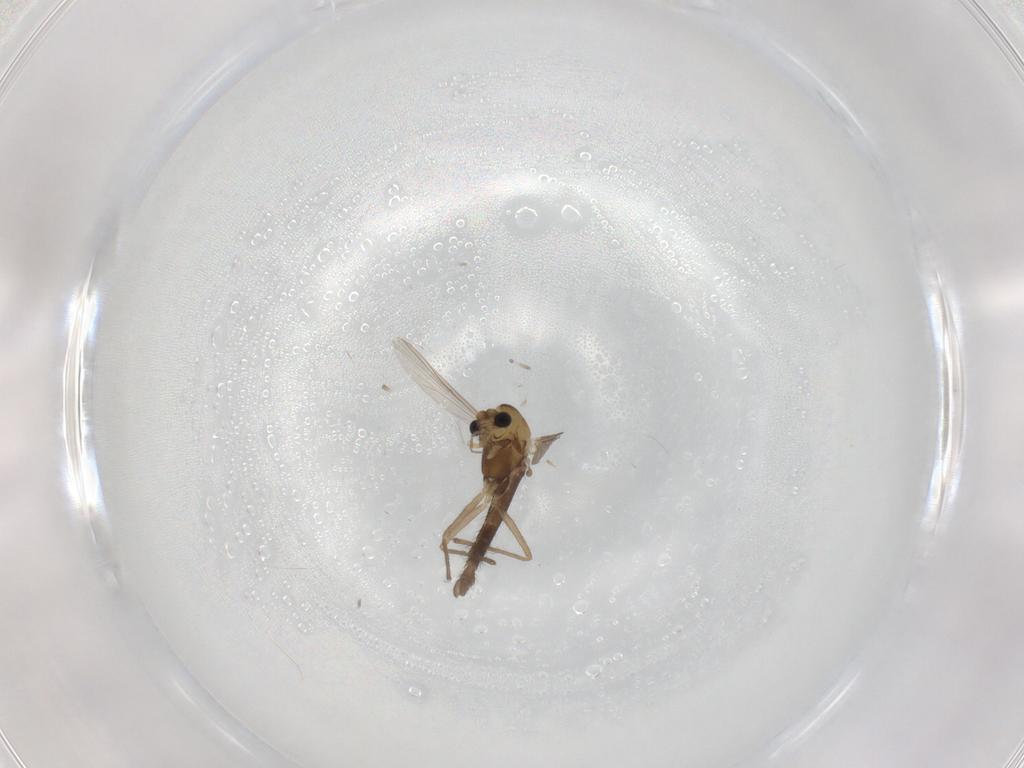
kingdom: Animalia
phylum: Arthropoda
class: Insecta
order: Diptera
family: Chironomidae
